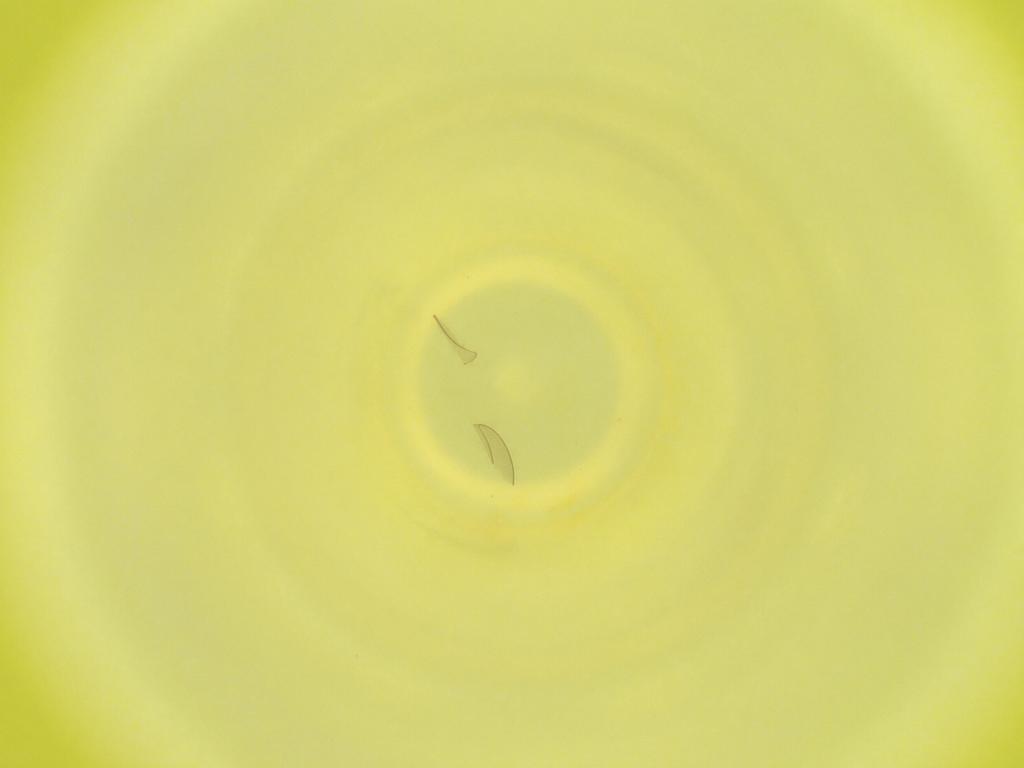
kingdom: Animalia
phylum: Arthropoda
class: Insecta
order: Diptera
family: Cecidomyiidae
